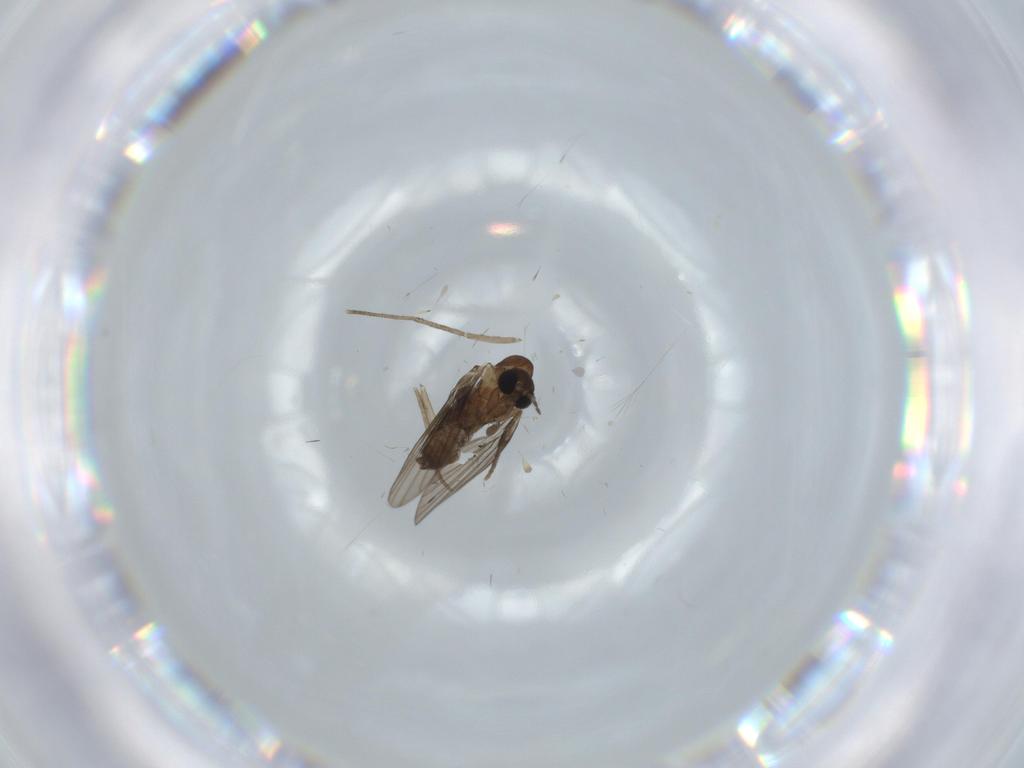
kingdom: Animalia
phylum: Arthropoda
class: Insecta
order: Diptera
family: Psychodidae
